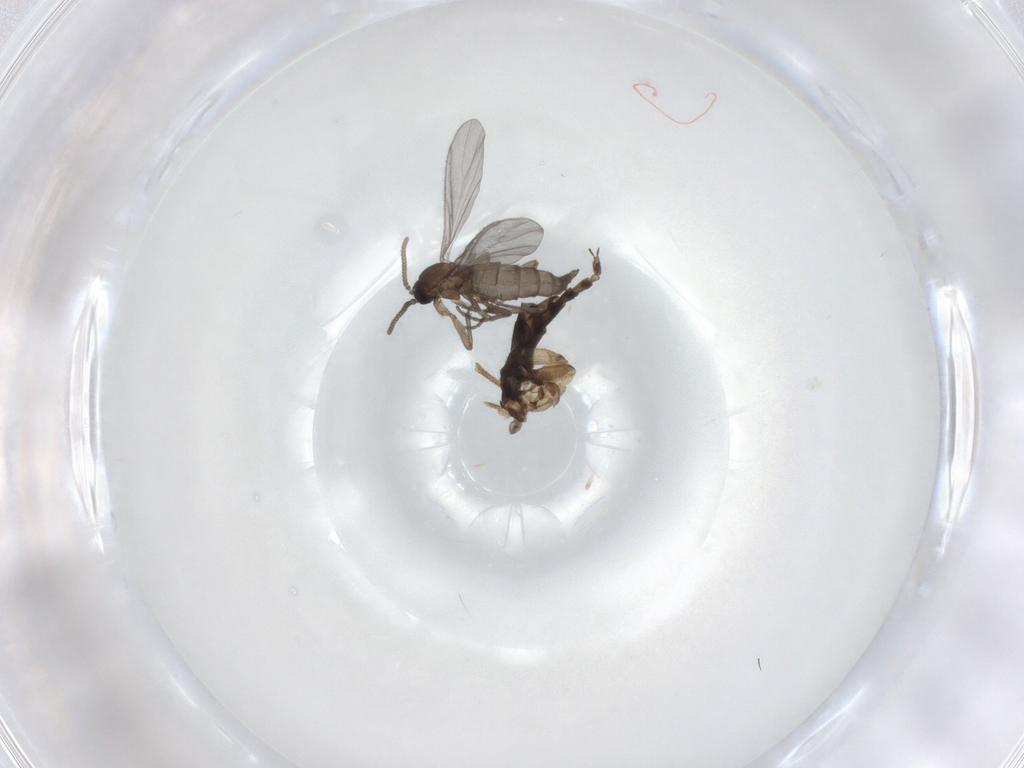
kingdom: Animalia
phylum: Arthropoda
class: Insecta
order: Diptera
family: Sciaridae
